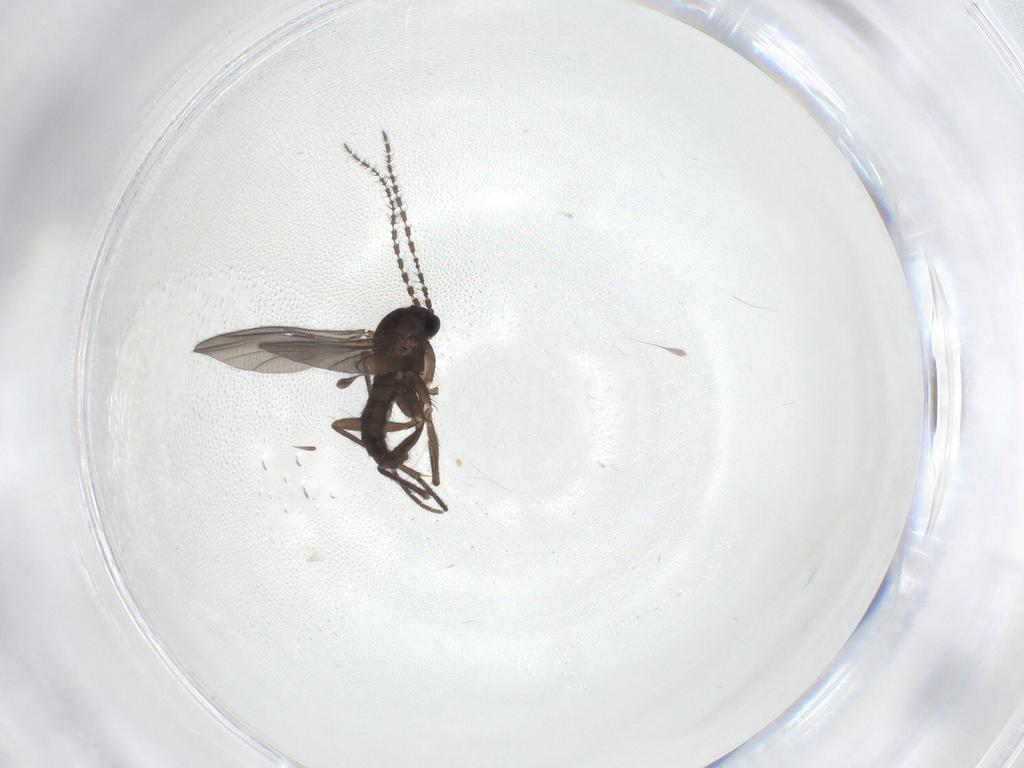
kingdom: Animalia
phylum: Arthropoda
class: Insecta
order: Diptera
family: Sciaridae
